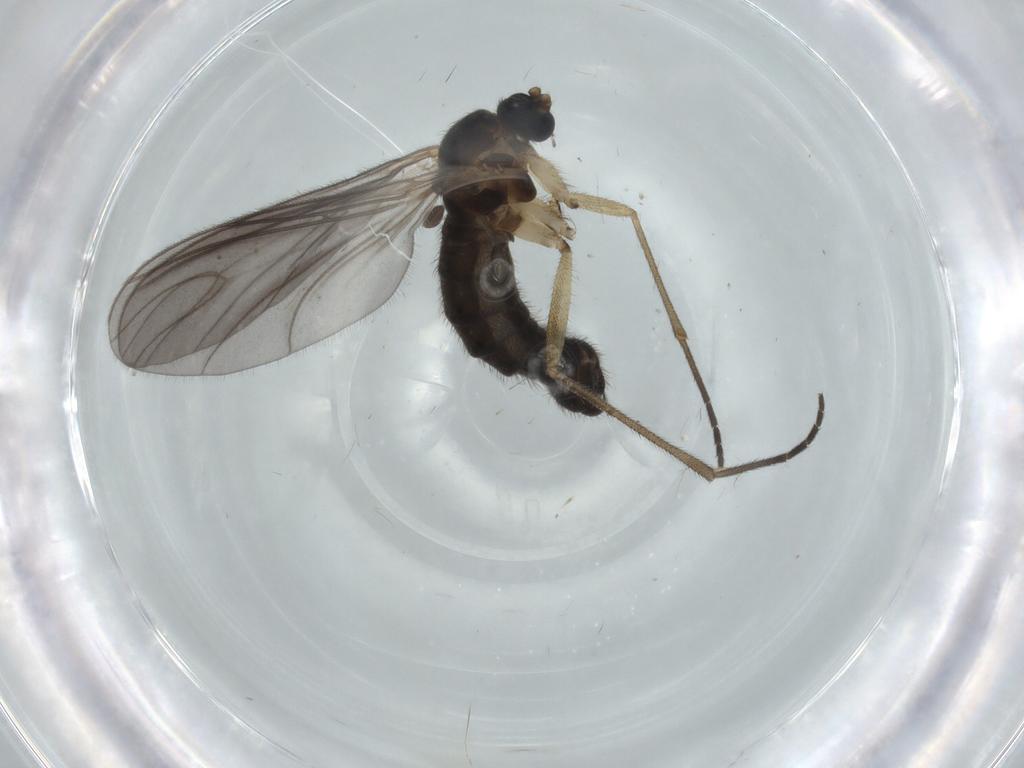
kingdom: Animalia
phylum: Arthropoda
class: Insecta
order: Diptera
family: Sciaridae
